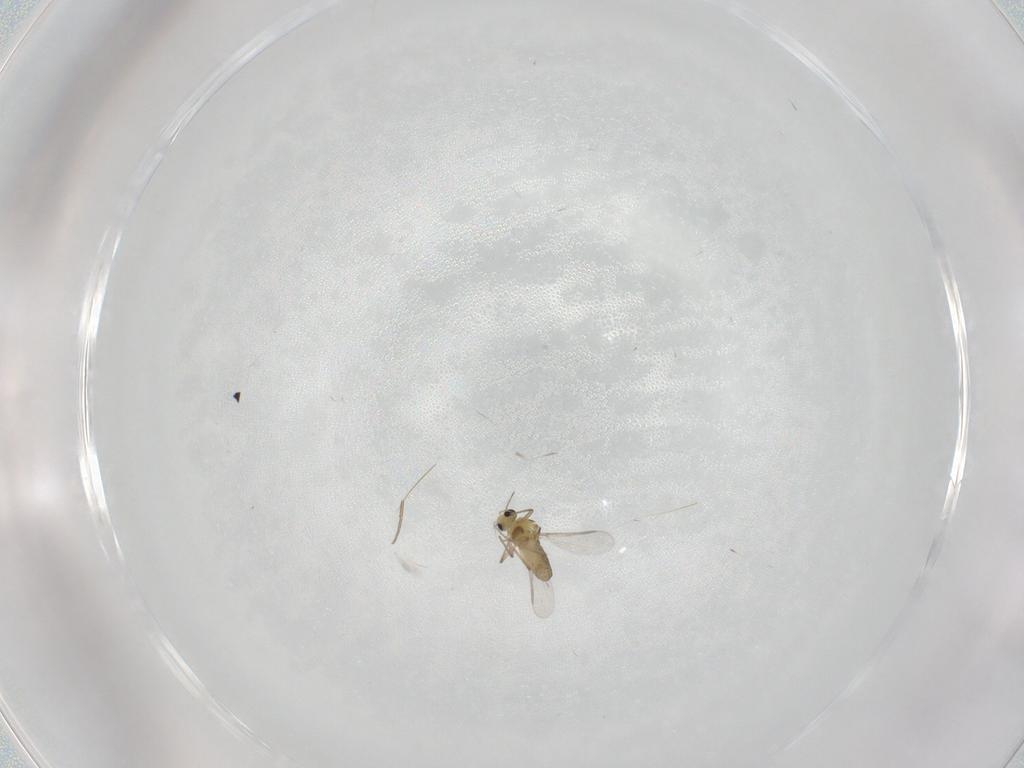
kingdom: Animalia
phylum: Arthropoda
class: Insecta
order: Diptera
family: Chironomidae
